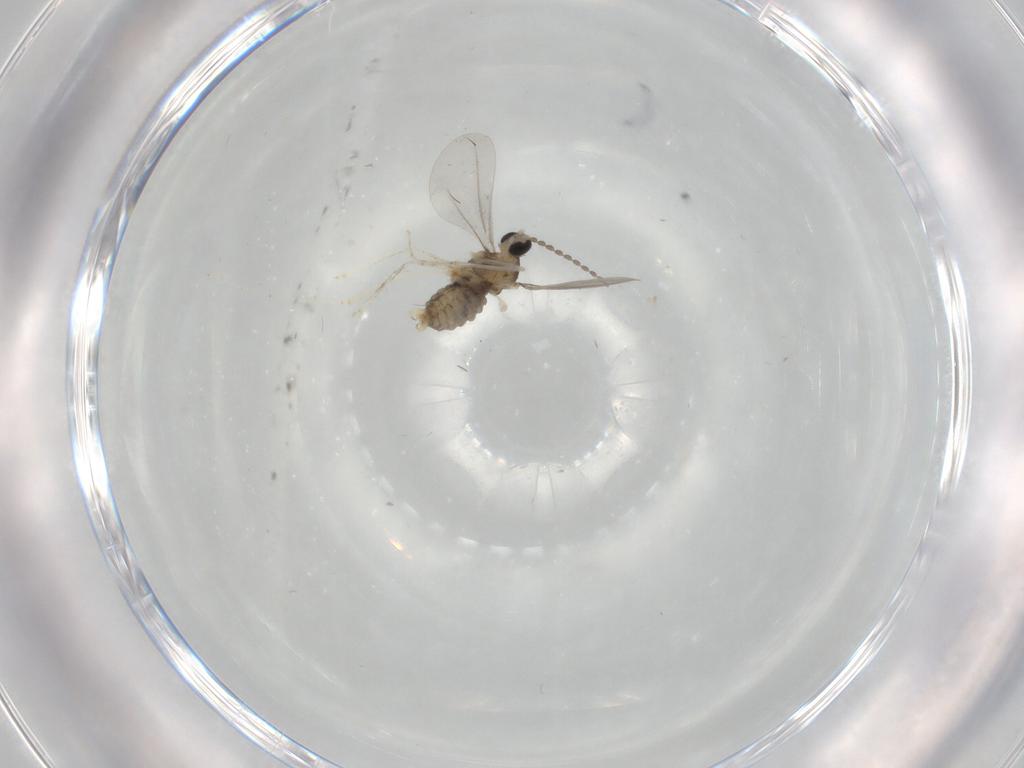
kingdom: Animalia
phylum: Arthropoda
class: Insecta
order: Diptera
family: Cecidomyiidae
